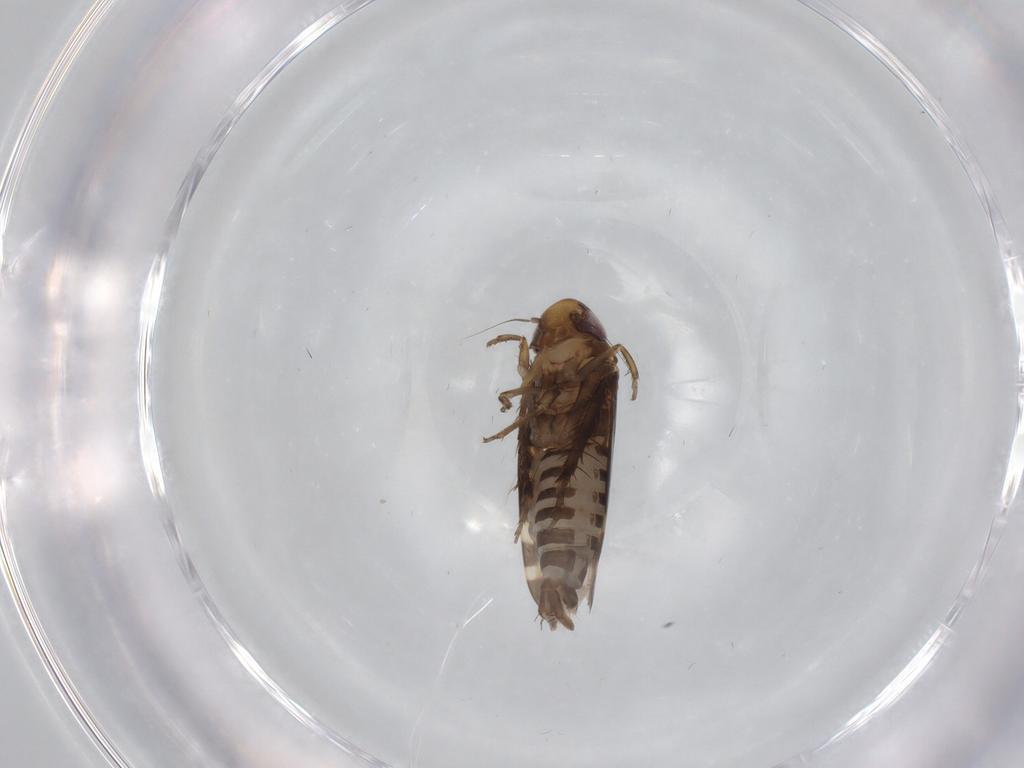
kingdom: Animalia
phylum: Arthropoda
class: Insecta
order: Hemiptera
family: Cicadellidae
